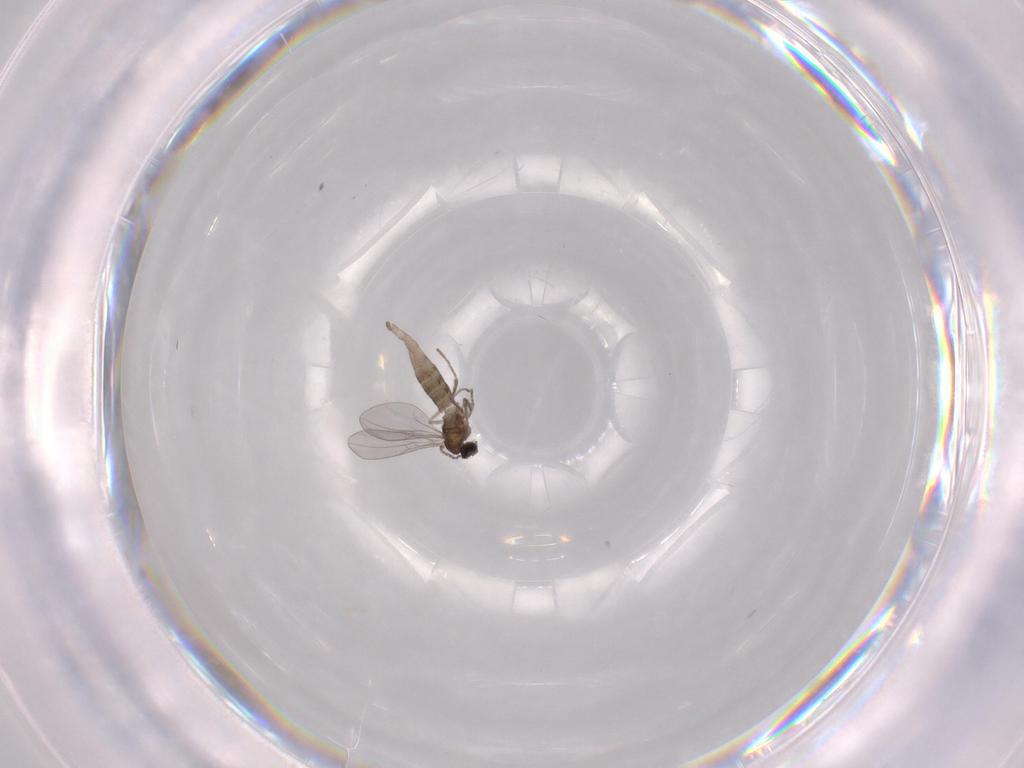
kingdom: Animalia
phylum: Arthropoda
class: Insecta
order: Diptera
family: Cecidomyiidae
